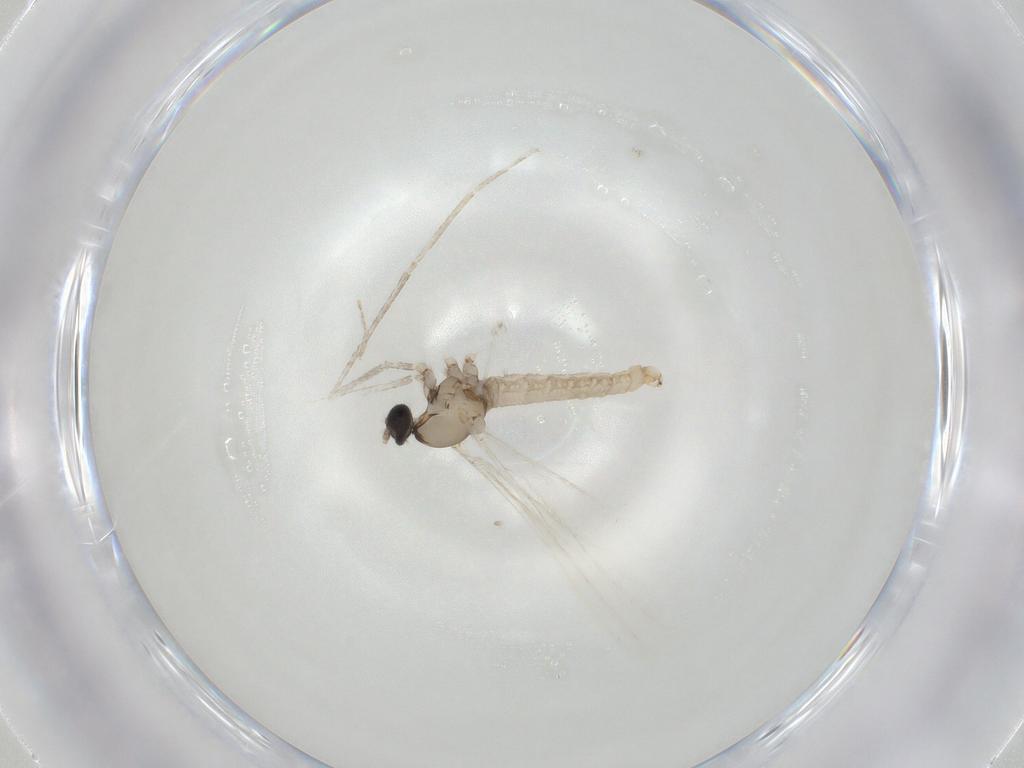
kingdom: Animalia
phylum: Arthropoda
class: Insecta
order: Diptera
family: Cecidomyiidae
